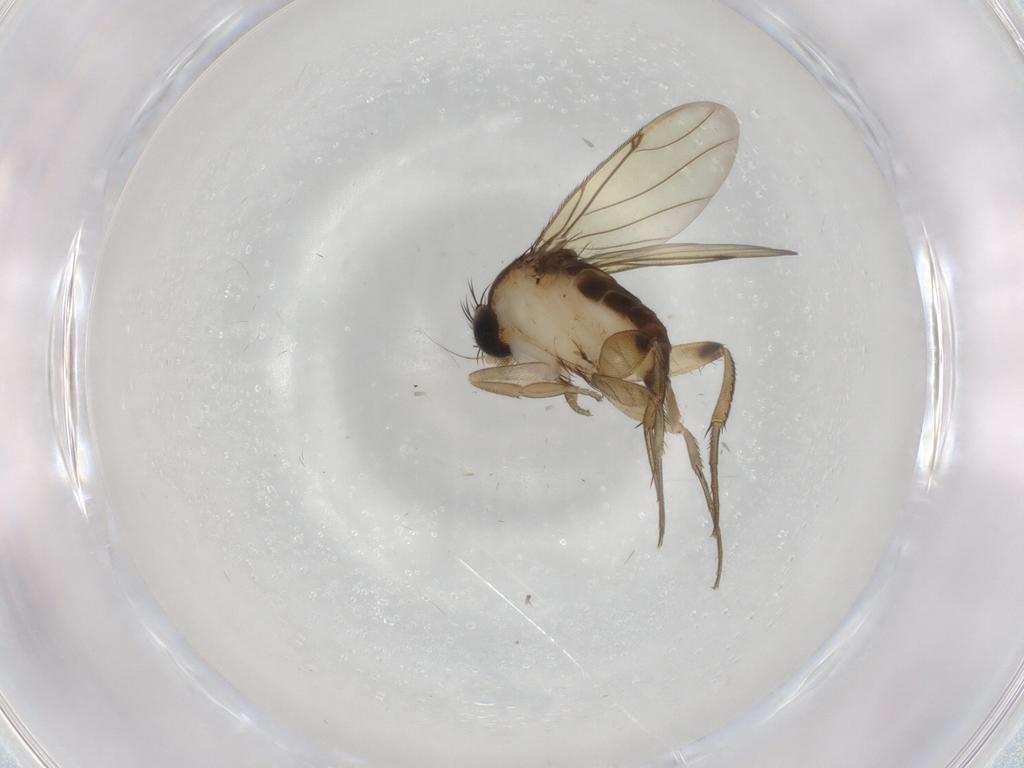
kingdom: Animalia
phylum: Arthropoda
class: Insecta
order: Diptera
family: Phoridae
